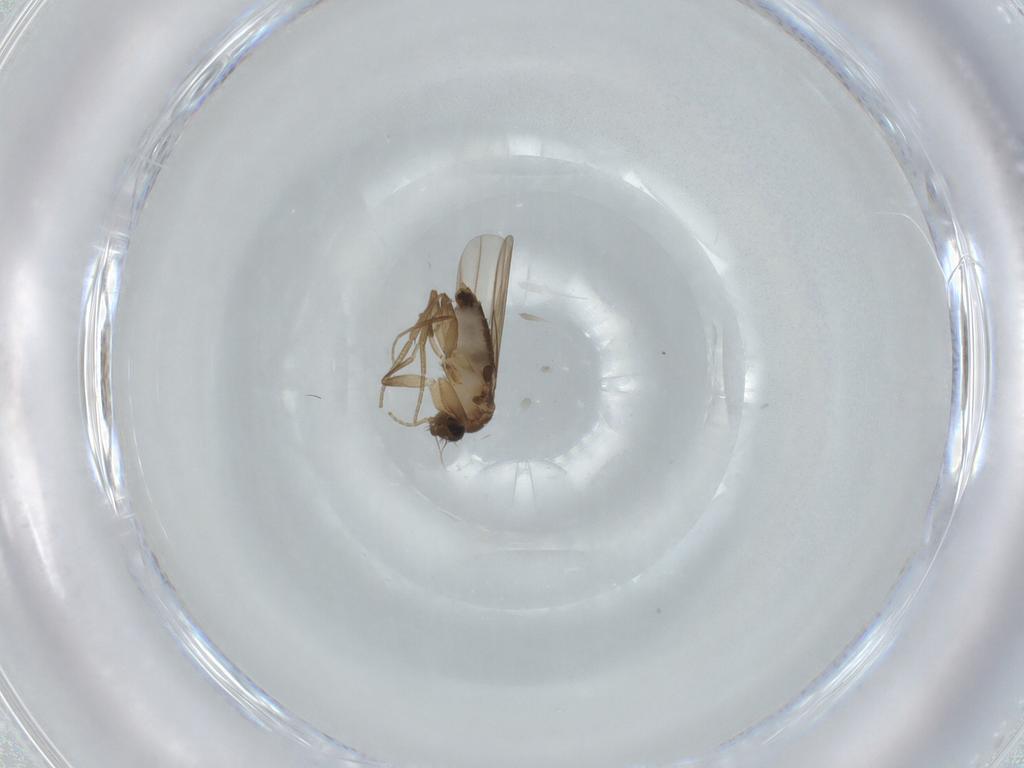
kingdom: Animalia
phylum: Arthropoda
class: Insecta
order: Diptera
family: Phoridae
